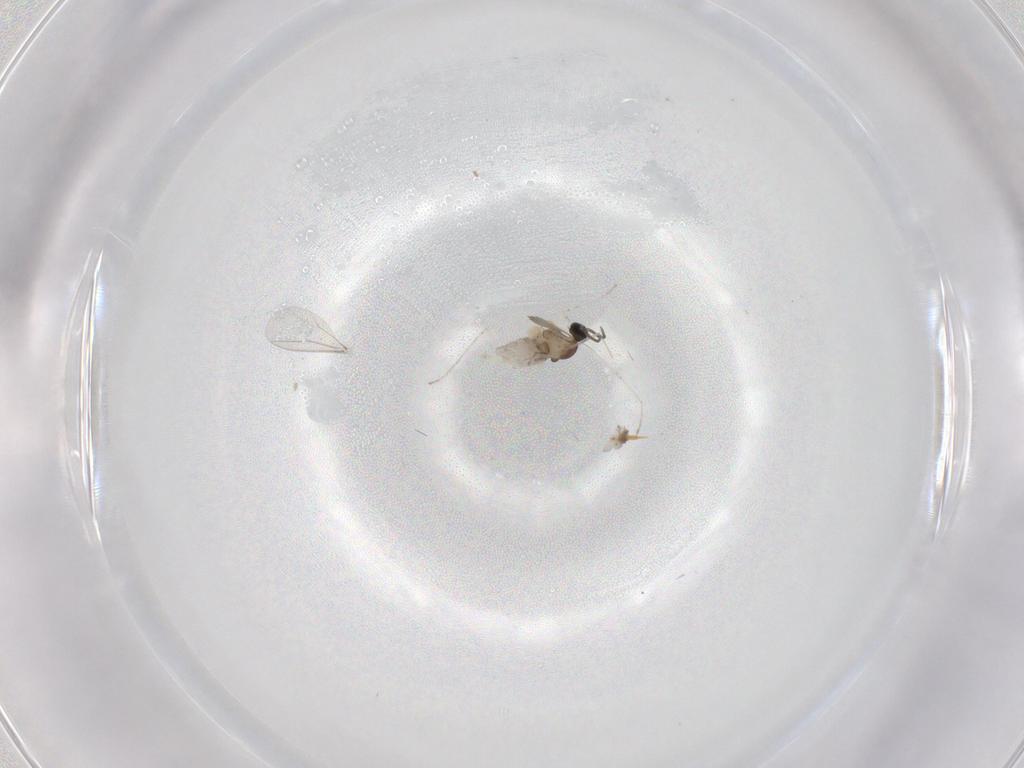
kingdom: Animalia
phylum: Arthropoda
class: Insecta
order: Diptera
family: Cecidomyiidae
